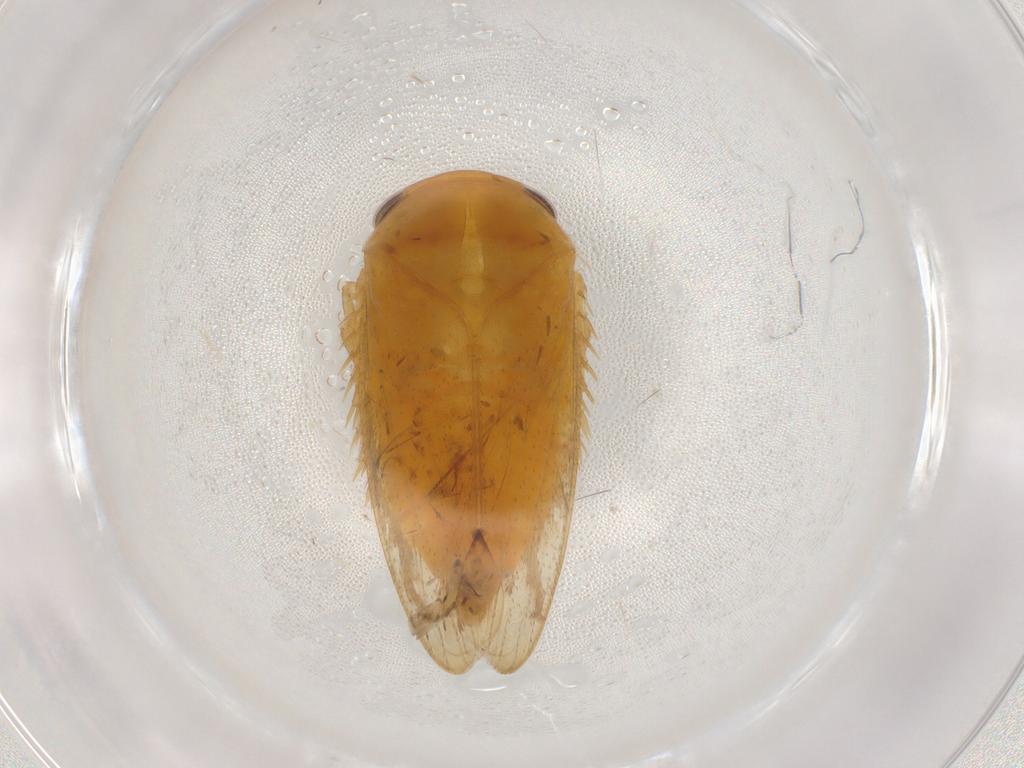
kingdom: Animalia
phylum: Arthropoda
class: Insecta
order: Hemiptera
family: Cicadellidae
